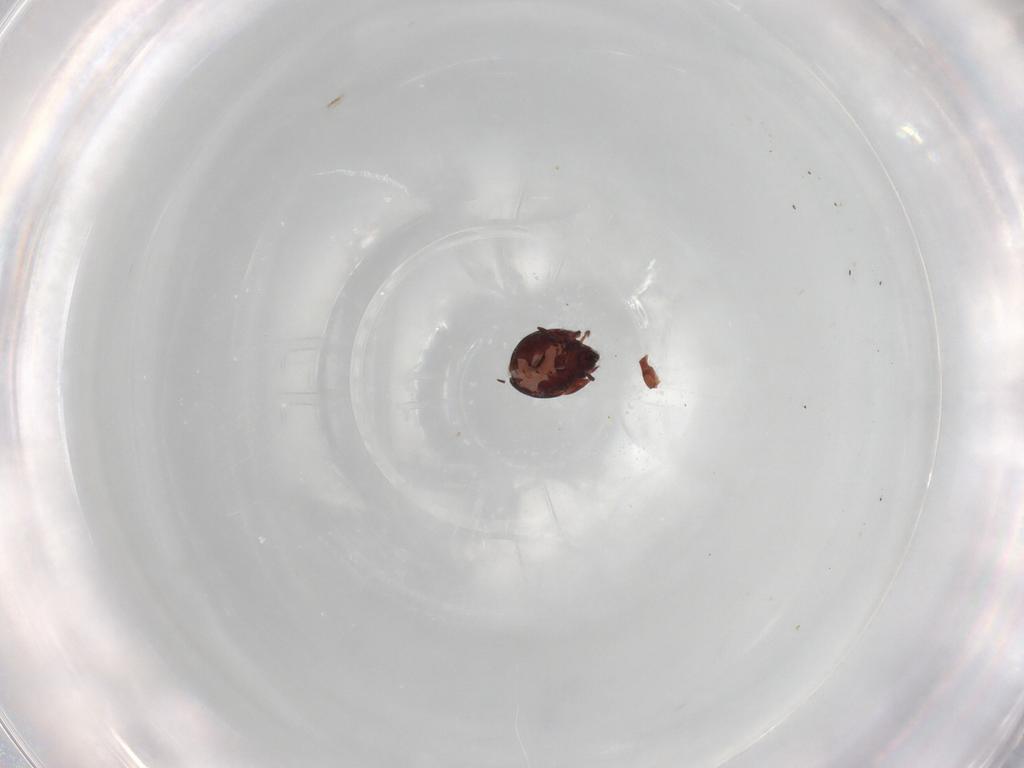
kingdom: Animalia
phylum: Arthropoda
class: Arachnida
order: Sarcoptiformes
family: Humerobatidae
